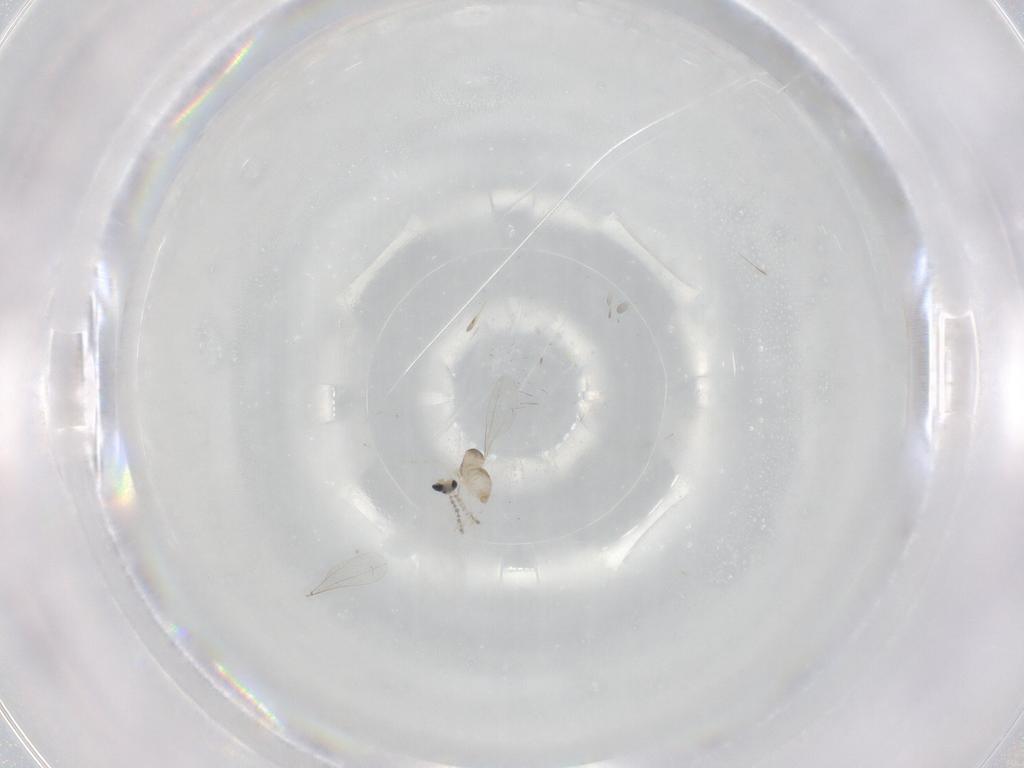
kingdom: Animalia
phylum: Arthropoda
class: Insecta
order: Diptera
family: Cecidomyiidae
